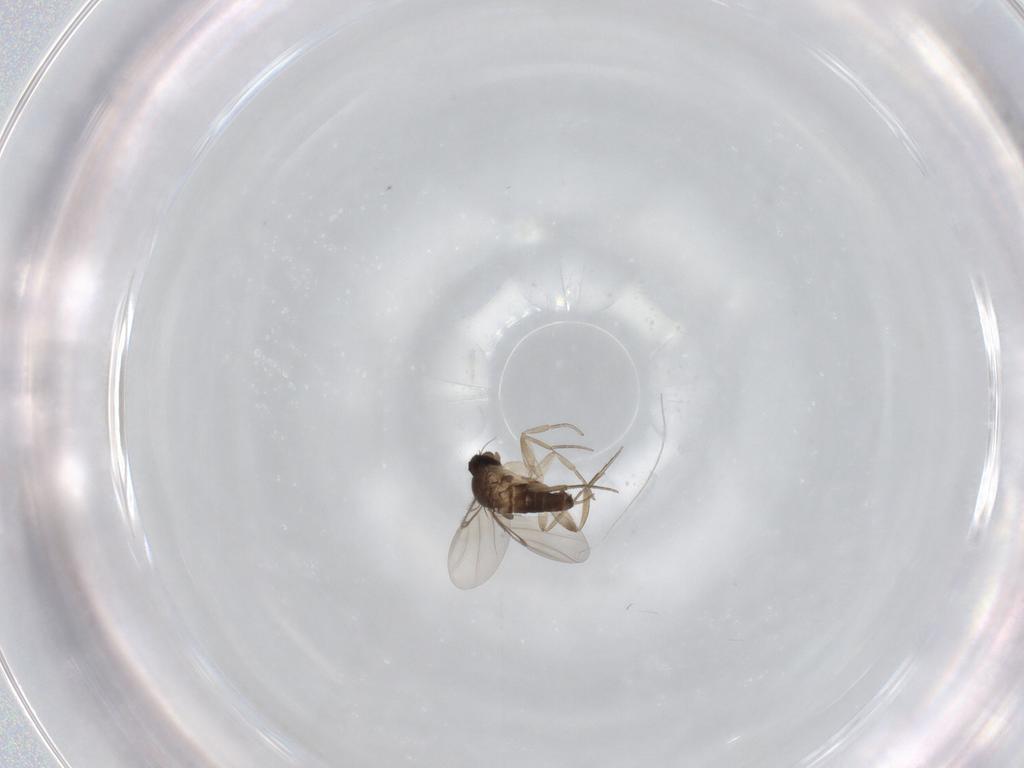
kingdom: Animalia
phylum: Arthropoda
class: Insecta
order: Diptera
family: Phoridae
